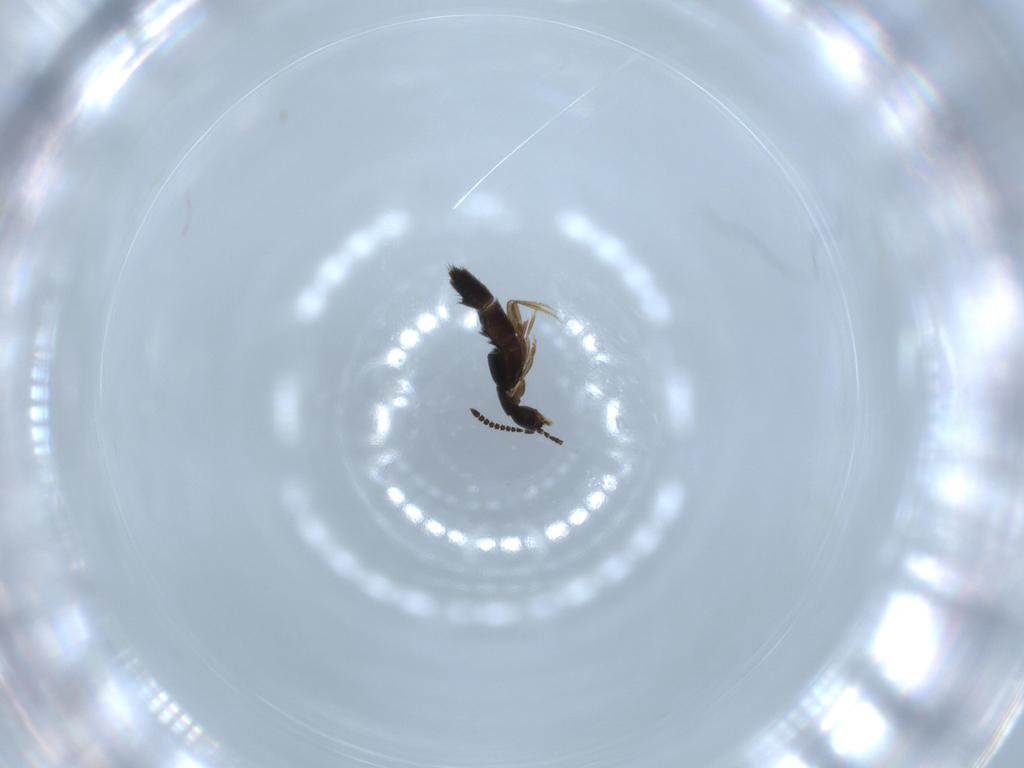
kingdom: Animalia
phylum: Arthropoda
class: Insecta
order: Coleoptera
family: Staphylinidae
